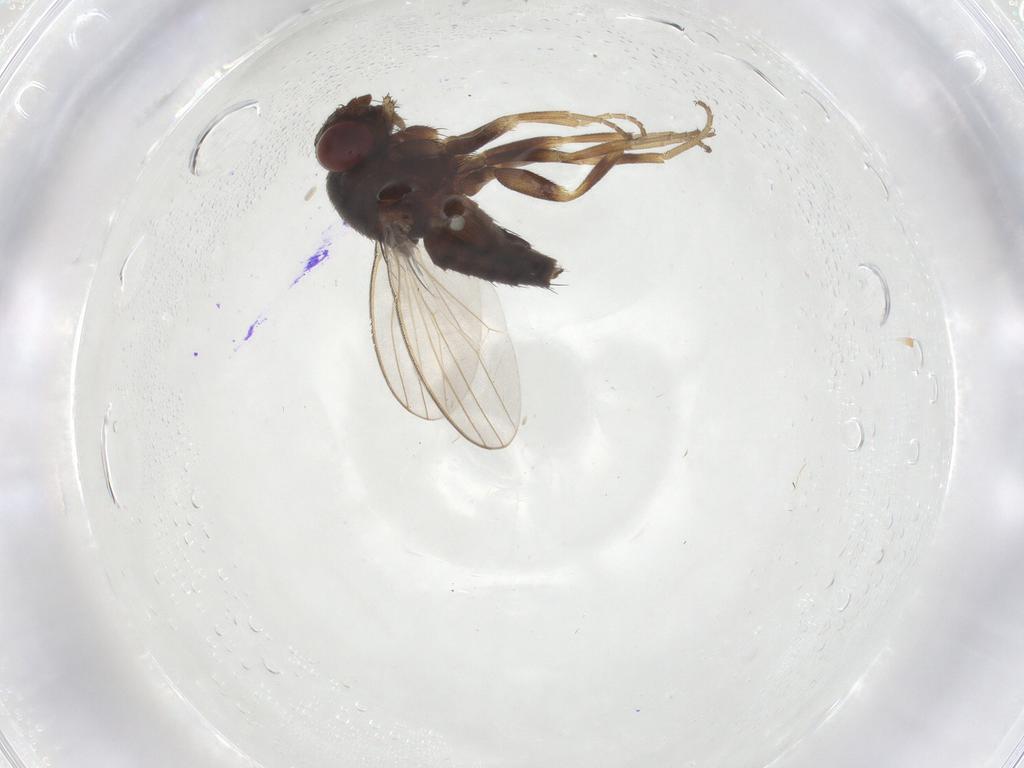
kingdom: Animalia
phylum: Arthropoda
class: Insecta
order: Diptera
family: Milichiidae
